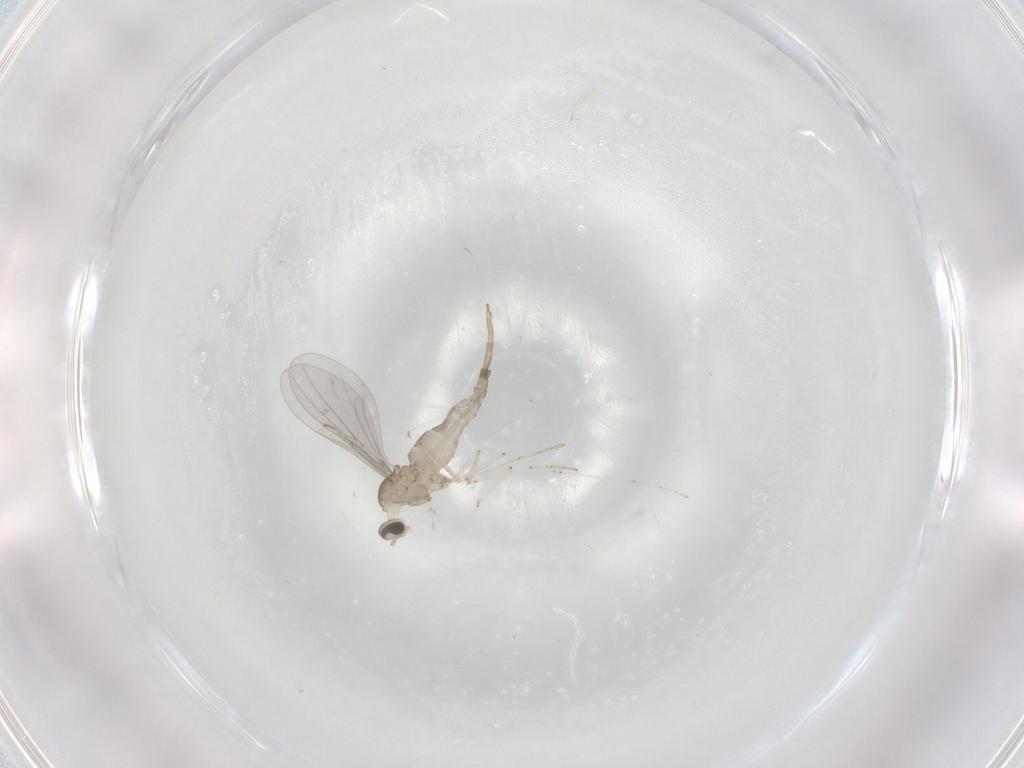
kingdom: Animalia
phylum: Arthropoda
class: Insecta
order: Diptera
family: Cecidomyiidae
